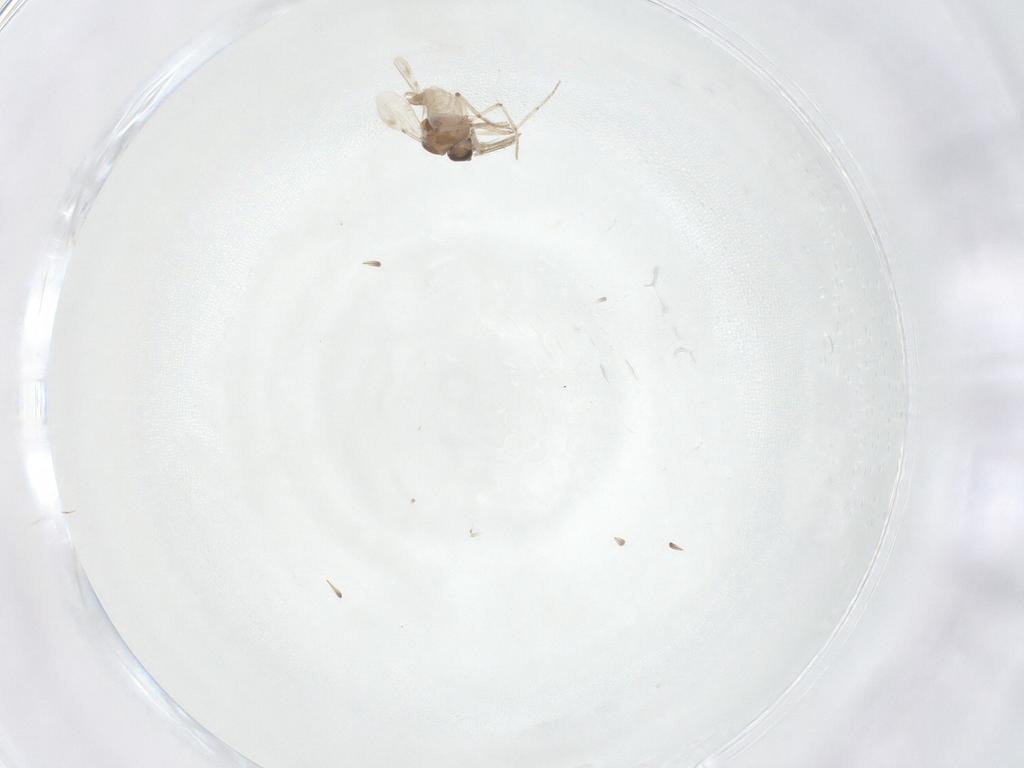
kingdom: Animalia
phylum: Arthropoda
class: Insecta
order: Diptera
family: Ceratopogonidae
